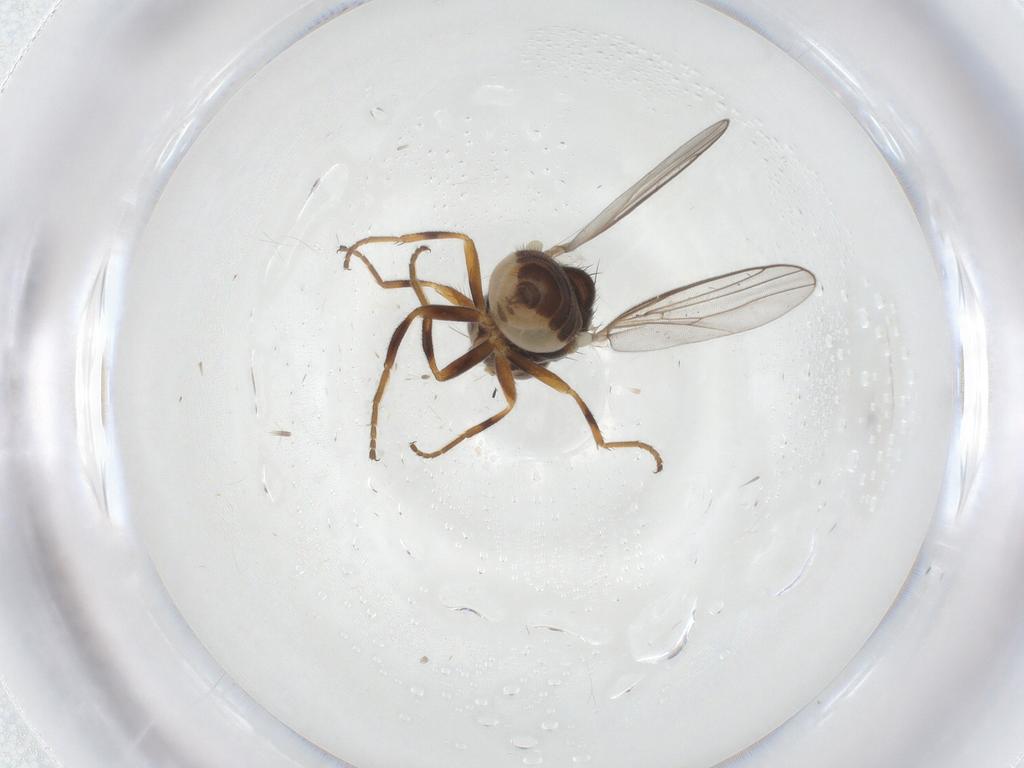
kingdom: Animalia
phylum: Arthropoda
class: Insecta
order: Diptera
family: Chloropidae
